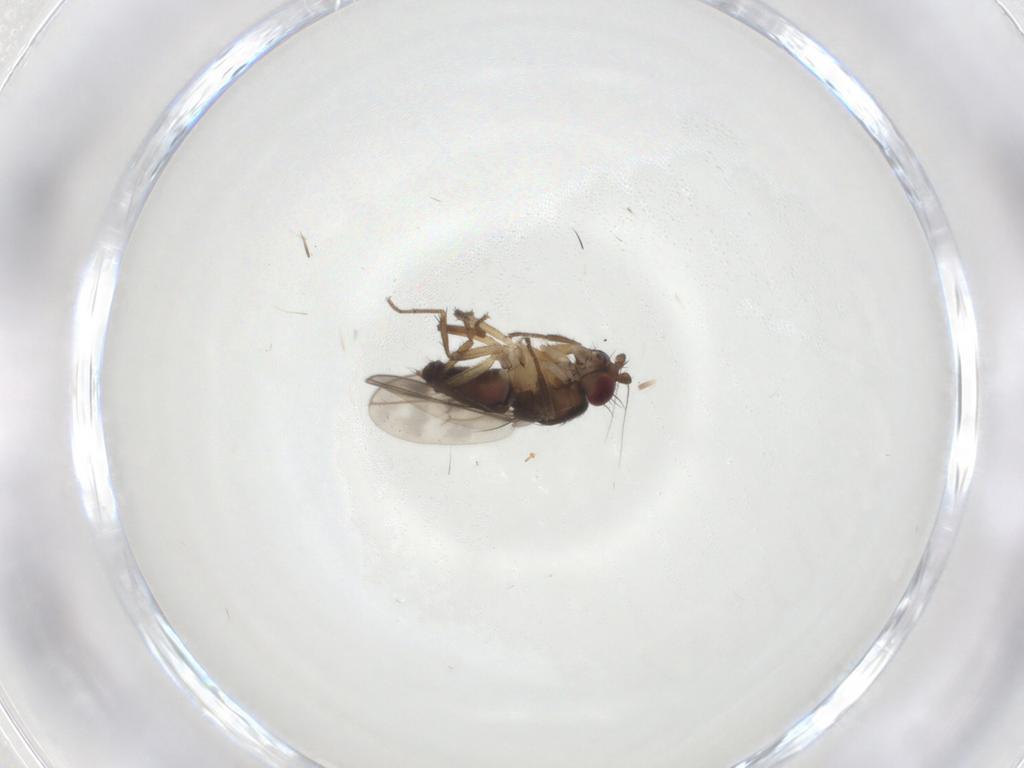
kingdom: Animalia
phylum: Arthropoda
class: Insecta
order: Diptera
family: Sphaeroceridae
